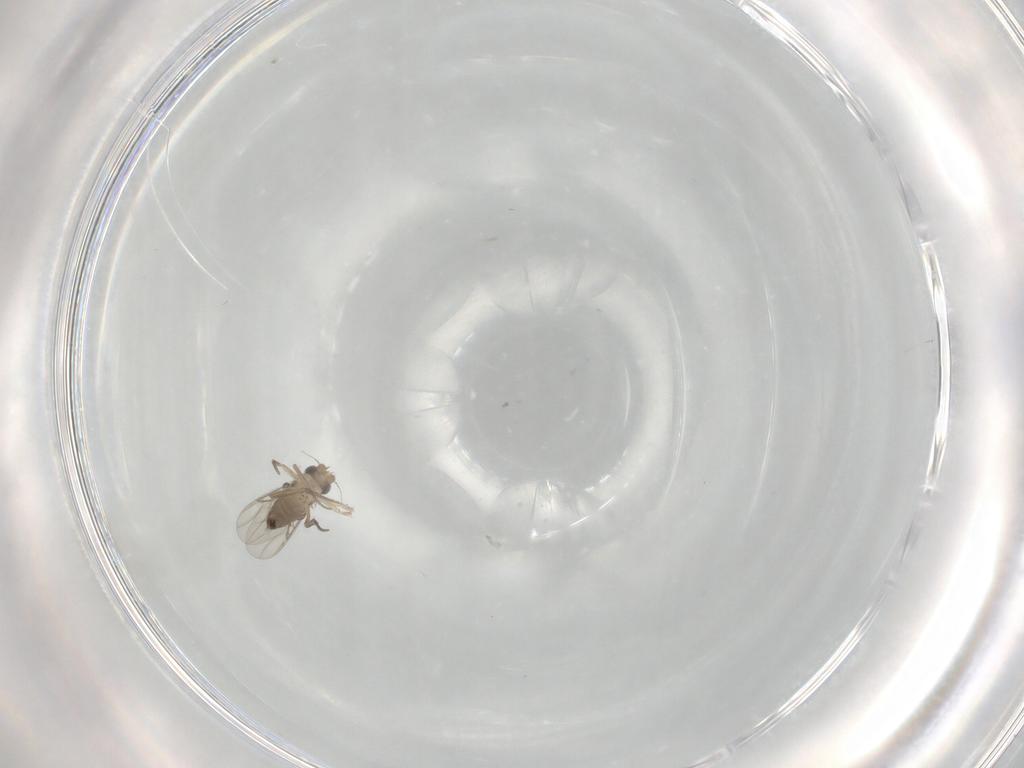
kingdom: Animalia
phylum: Arthropoda
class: Insecta
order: Diptera
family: Phoridae
